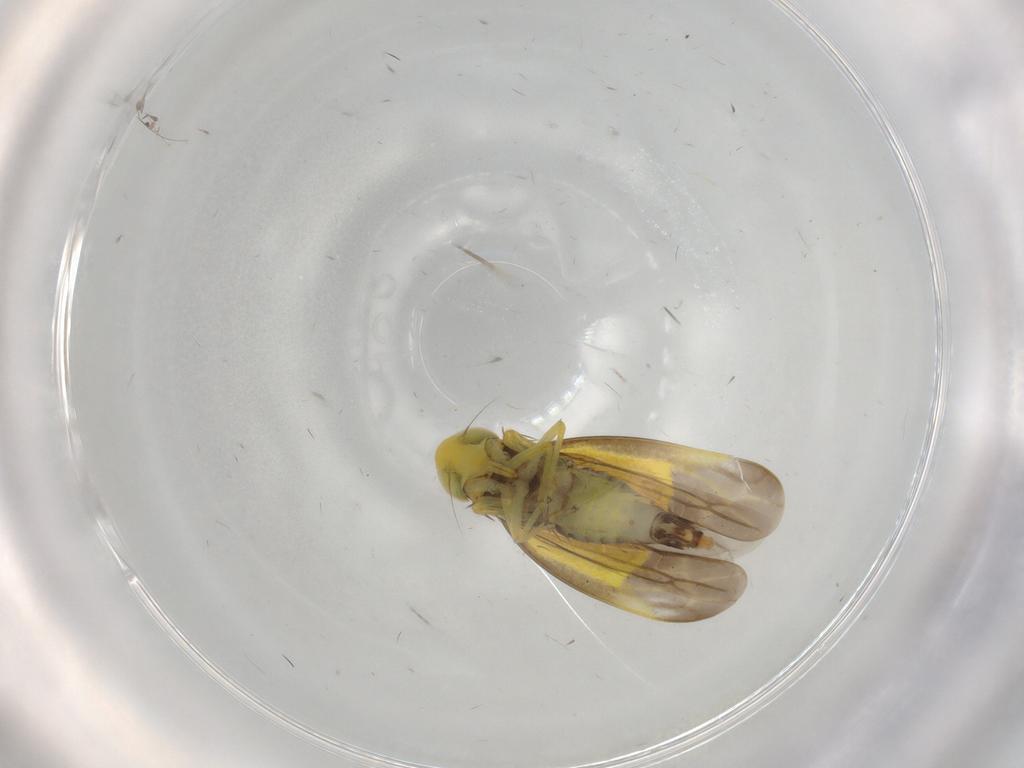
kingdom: Animalia
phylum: Arthropoda
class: Insecta
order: Hemiptera
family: Cicadellidae
